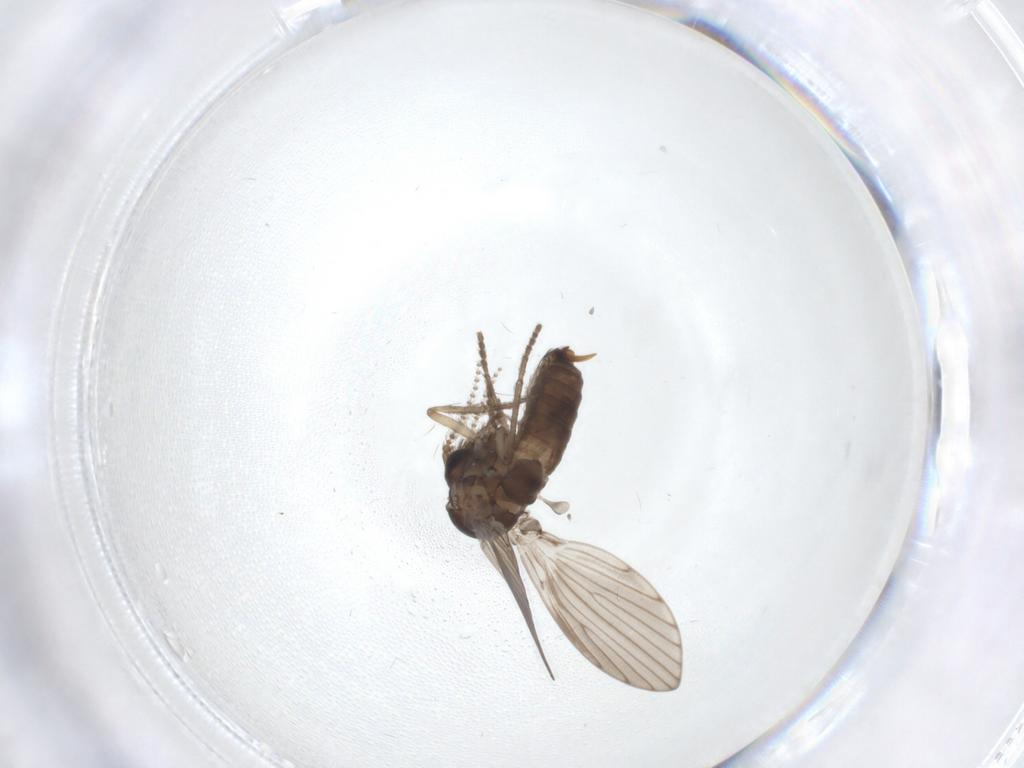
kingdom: Animalia
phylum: Arthropoda
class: Insecta
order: Diptera
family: Psychodidae
